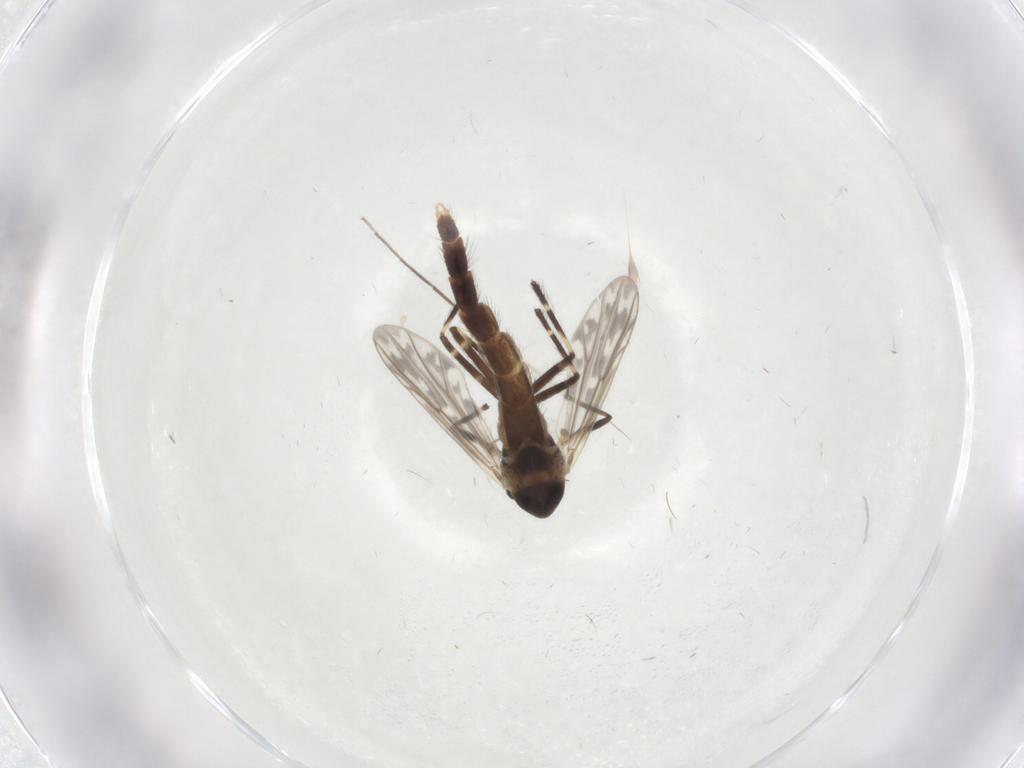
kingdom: Animalia
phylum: Arthropoda
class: Insecta
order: Diptera
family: Chironomidae
